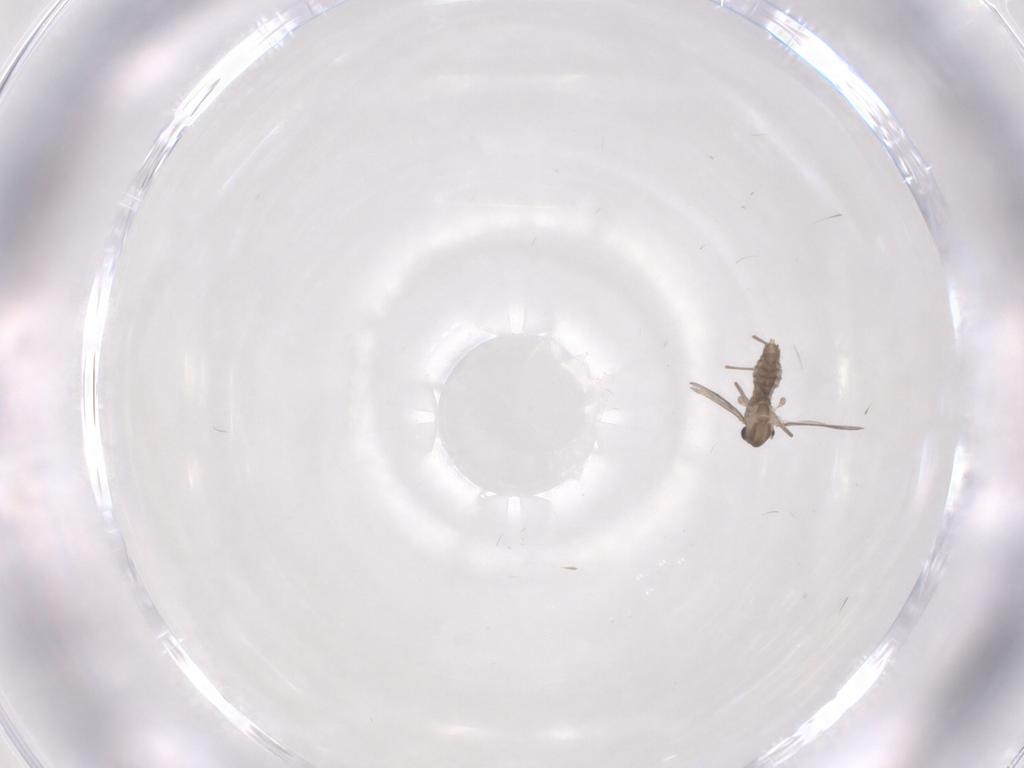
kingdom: Animalia
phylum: Arthropoda
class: Insecta
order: Diptera
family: Chironomidae
